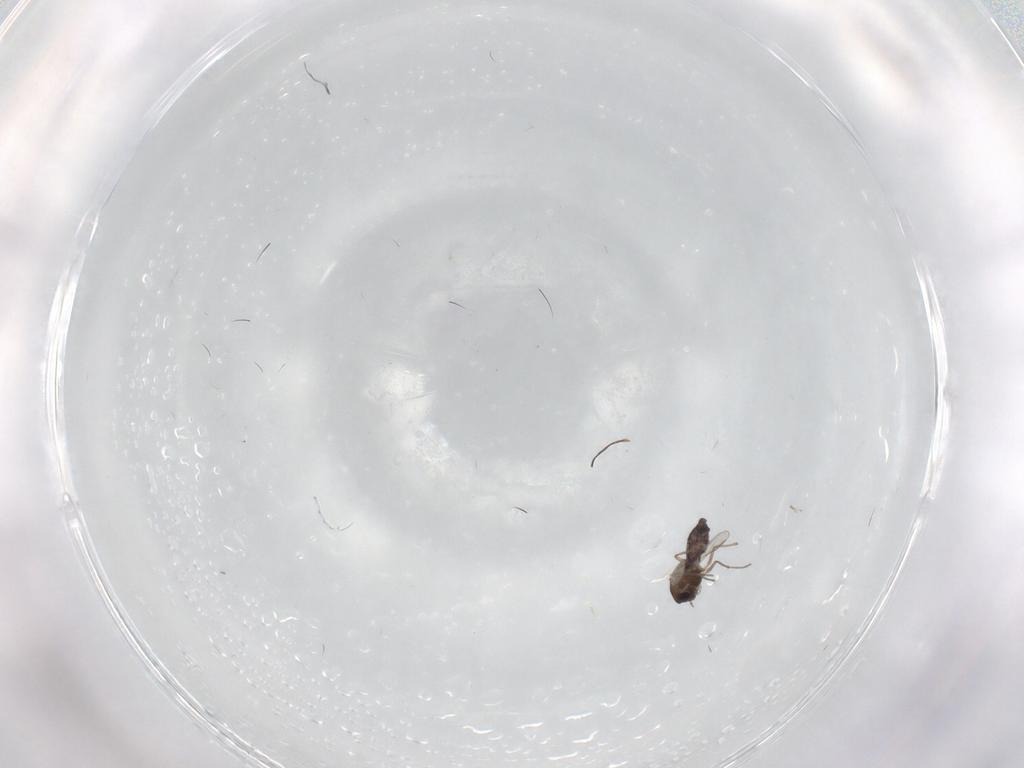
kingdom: Animalia
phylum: Arthropoda
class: Insecta
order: Diptera
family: Chironomidae
